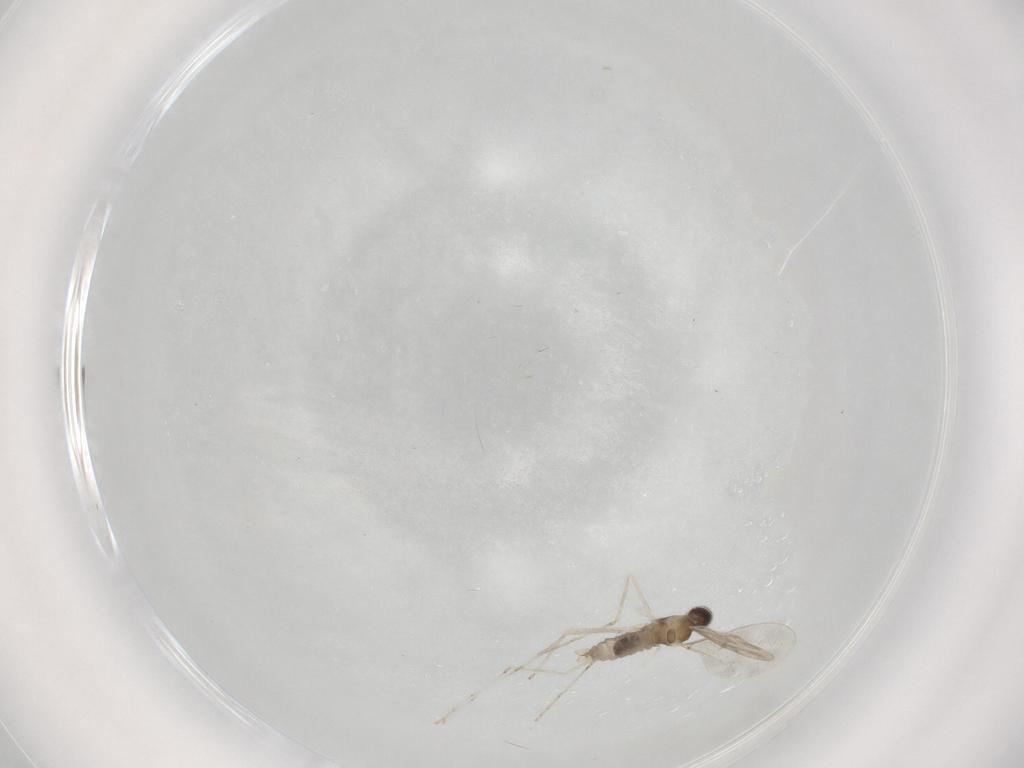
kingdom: Animalia
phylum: Arthropoda
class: Insecta
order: Diptera
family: Cecidomyiidae
